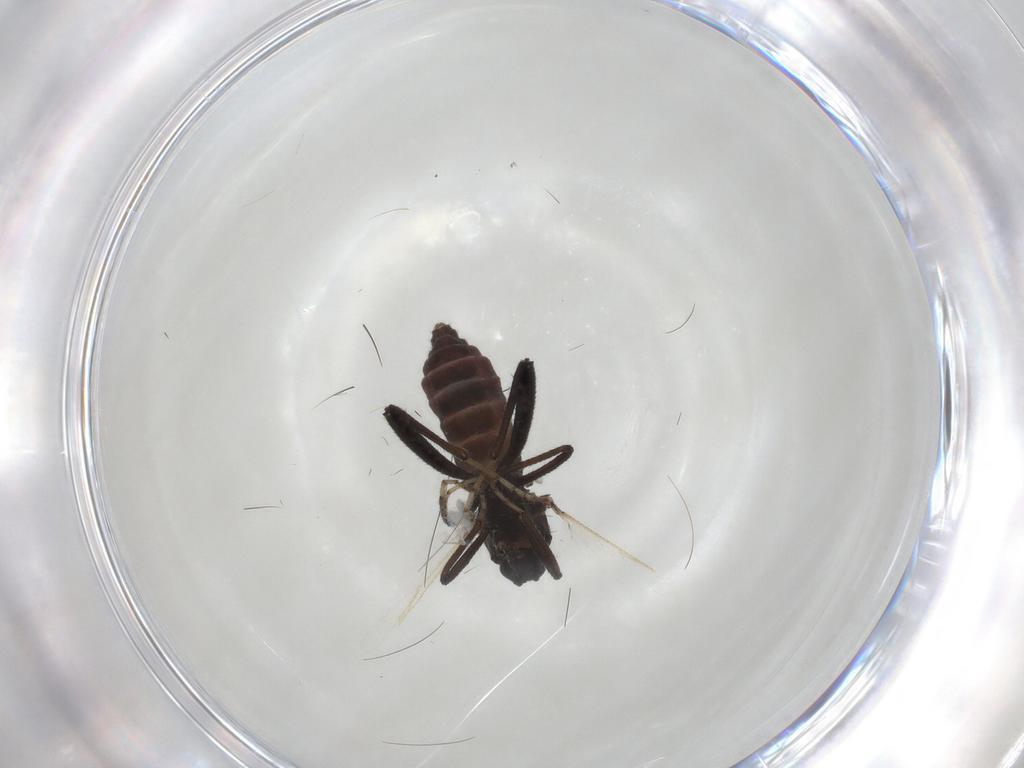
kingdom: Animalia
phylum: Arthropoda
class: Insecta
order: Diptera
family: Ceratopogonidae
